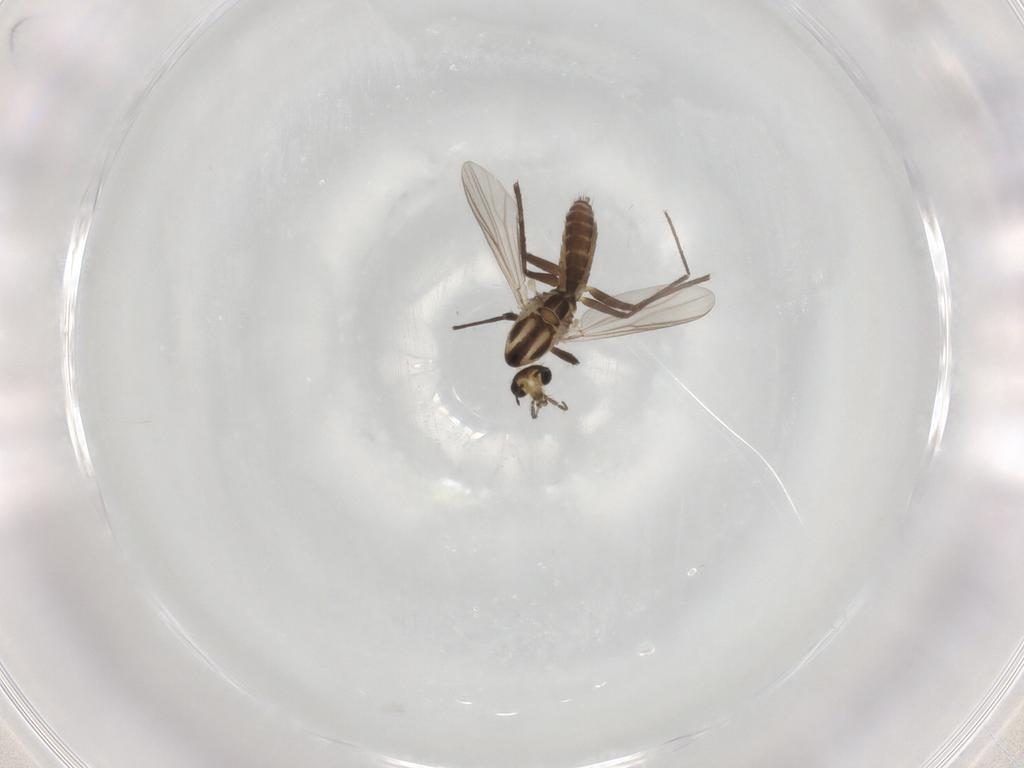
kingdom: Animalia
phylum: Arthropoda
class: Insecta
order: Diptera
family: Chironomidae
